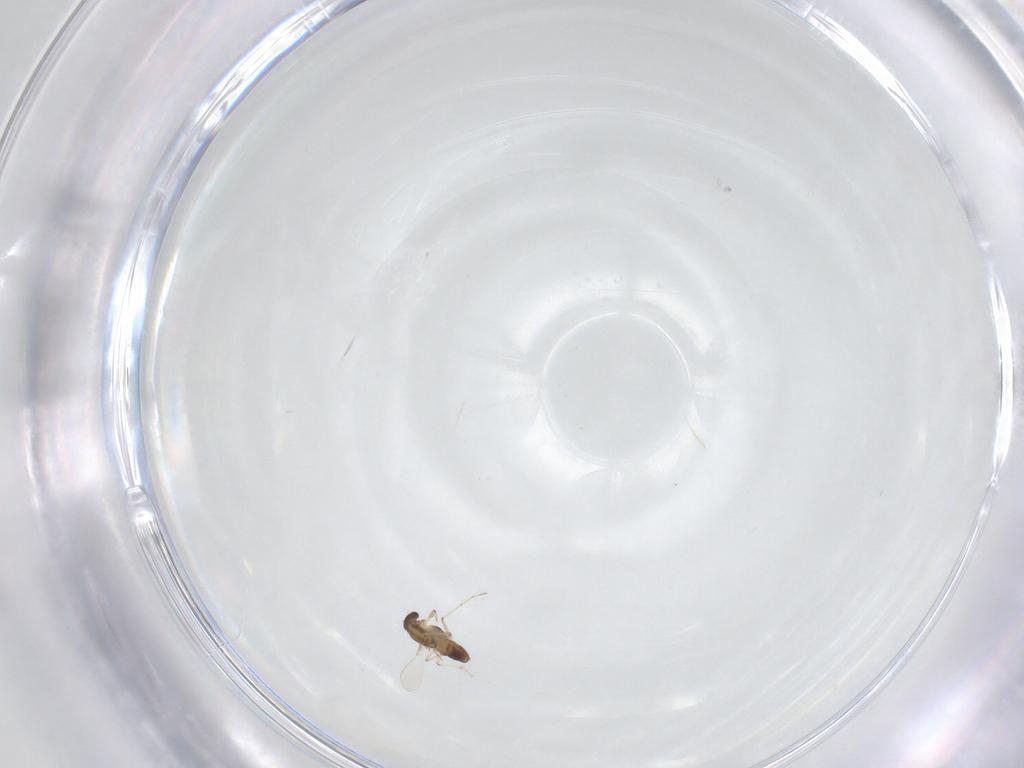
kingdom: Animalia
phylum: Arthropoda
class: Insecta
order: Diptera
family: Chironomidae
